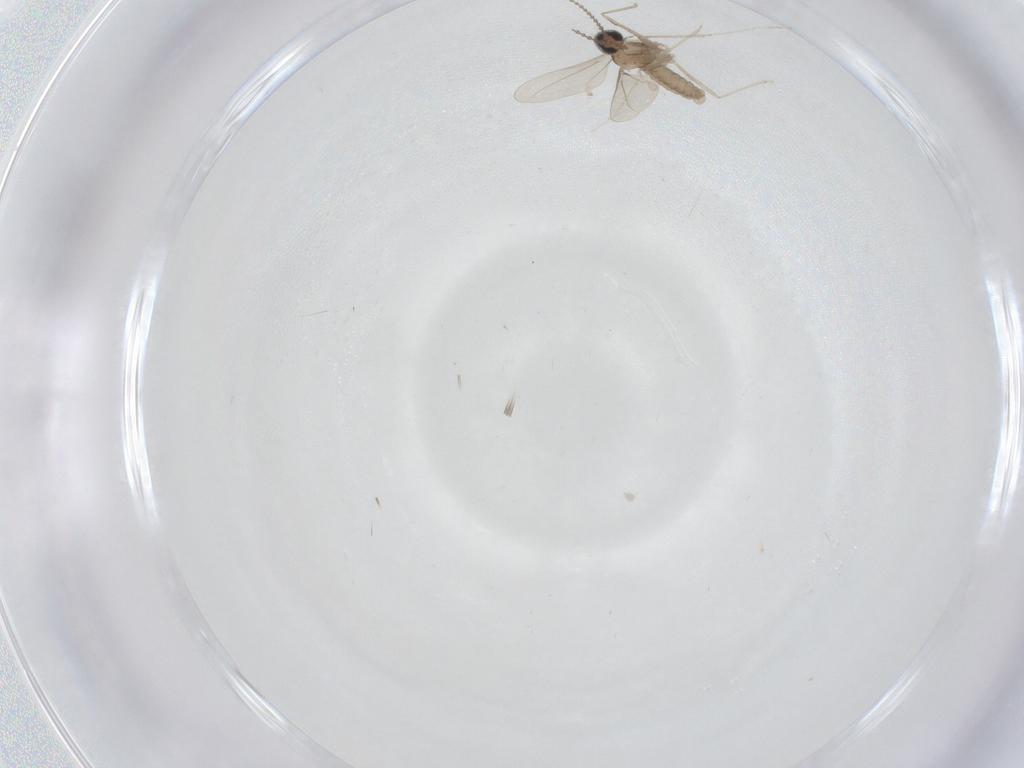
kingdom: Animalia
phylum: Arthropoda
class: Insecta
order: Diptera
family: Cecidomyiidae
